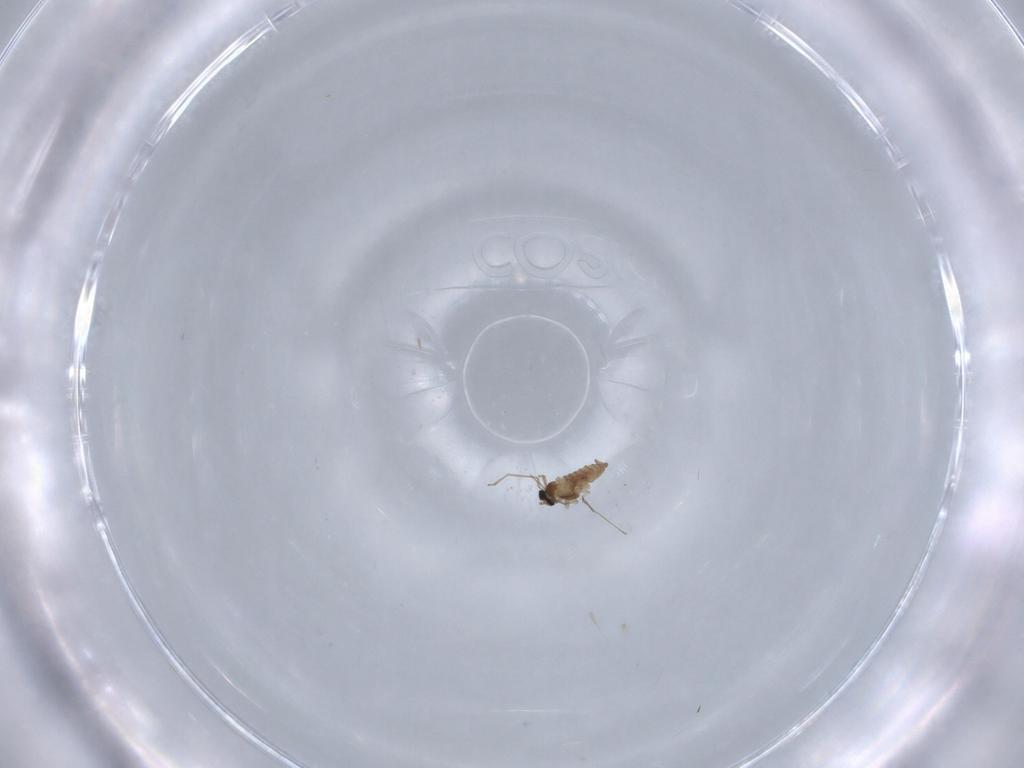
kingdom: Animalia
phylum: Arthropoda
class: Insecta
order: Diptera
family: Cecidomyiidae
